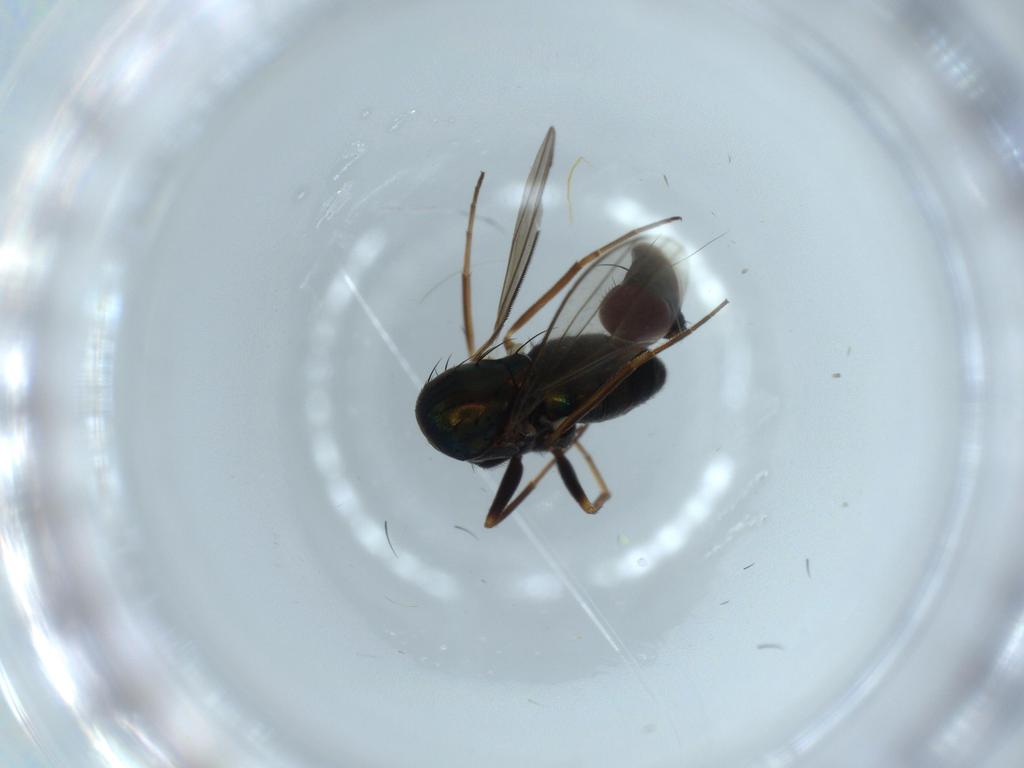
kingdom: Animalia
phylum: Arthropoda
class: Insecta
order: Diptera
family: Dolichopodidae
